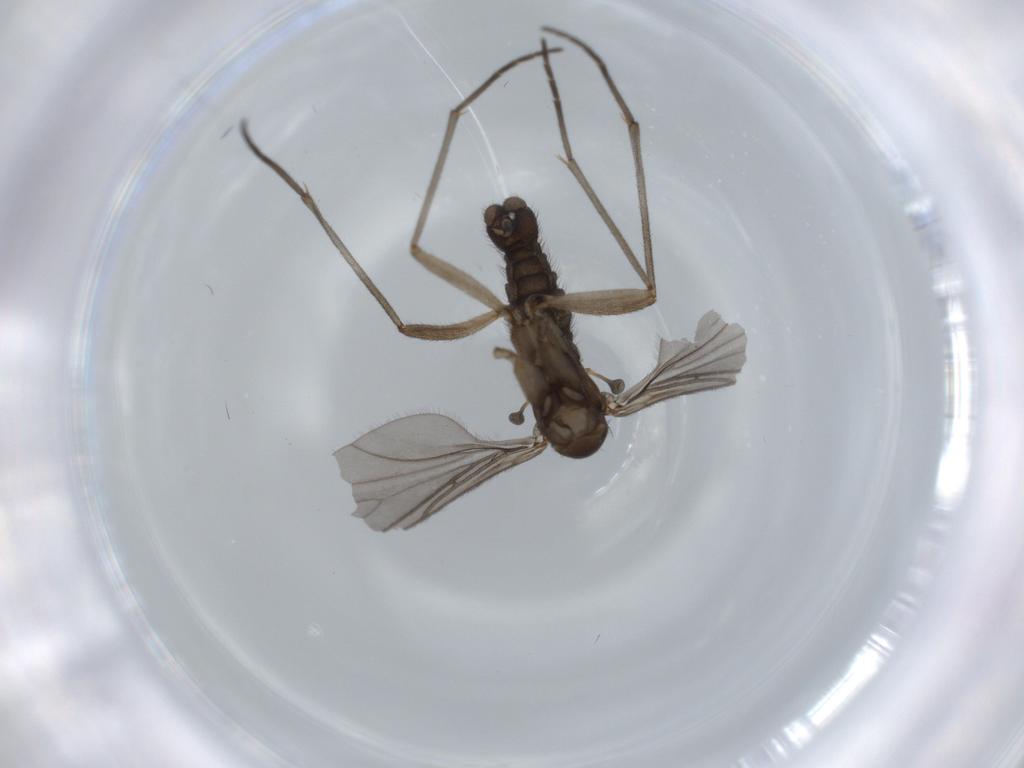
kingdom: Animalia
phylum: Arthropoda
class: Insecta
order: Diptera
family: Sciaridae
